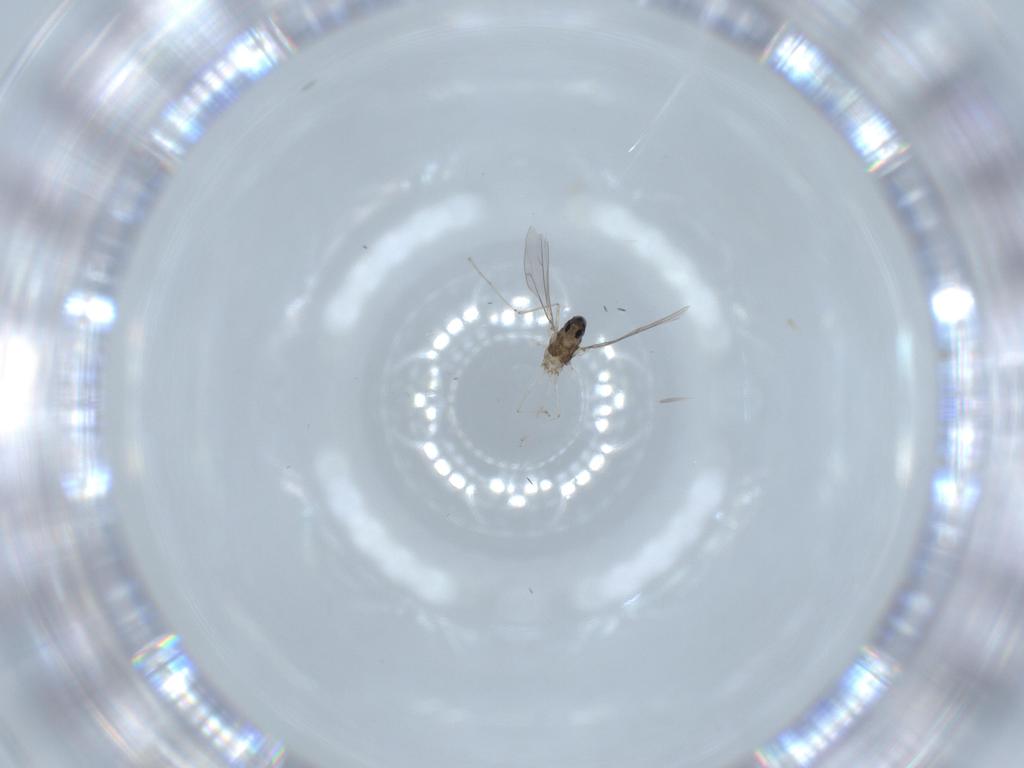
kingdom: Animalia
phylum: Arthropoda
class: Insecta
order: Diptera
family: Cecidomyiidae
